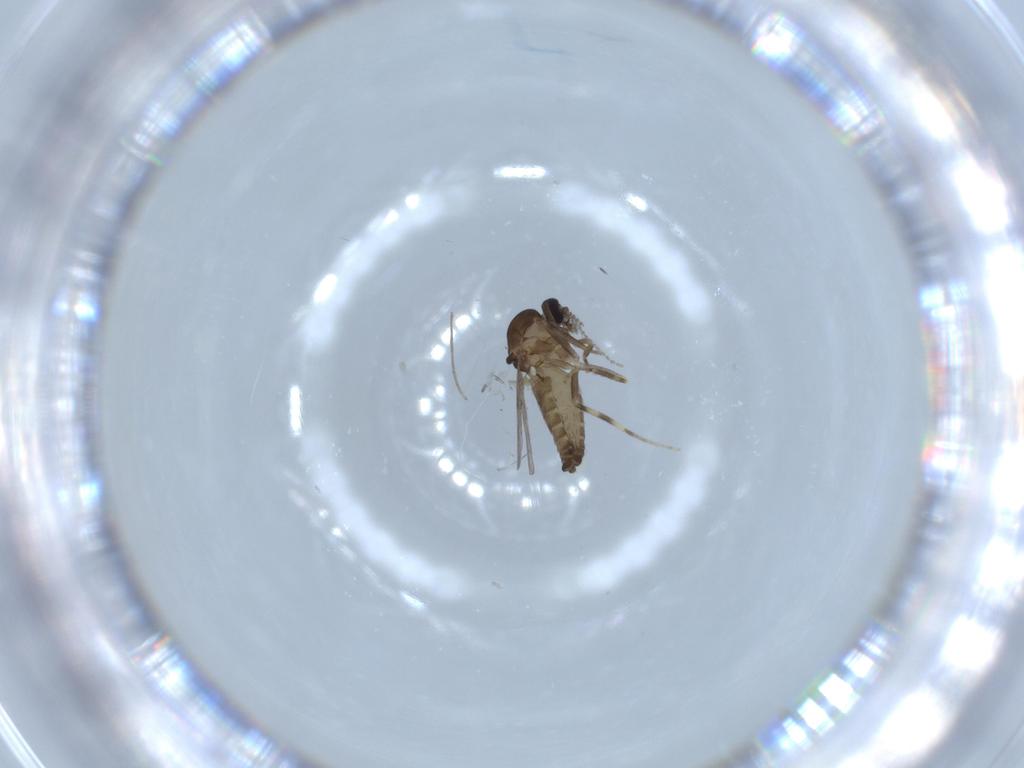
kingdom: Animalia
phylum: Arthropoda
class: Insecta
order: Diptera
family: Ceratopogonidae
